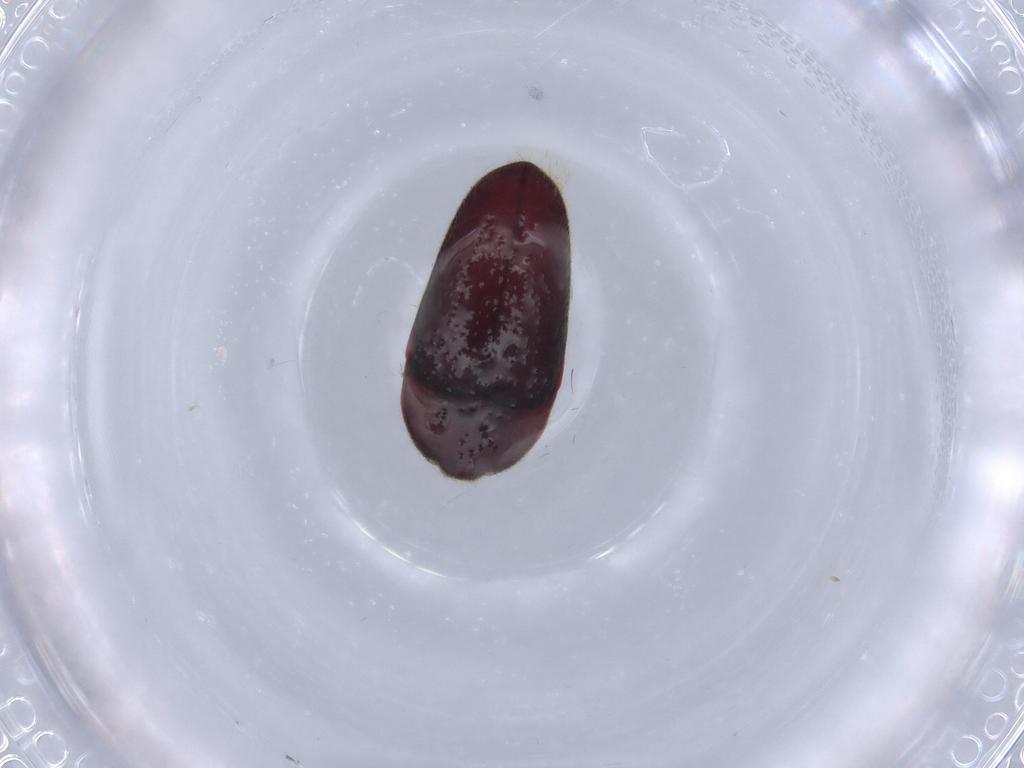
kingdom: Animalia
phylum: Arthropoda
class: Insecta
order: Coleoptera
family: Throscidae
